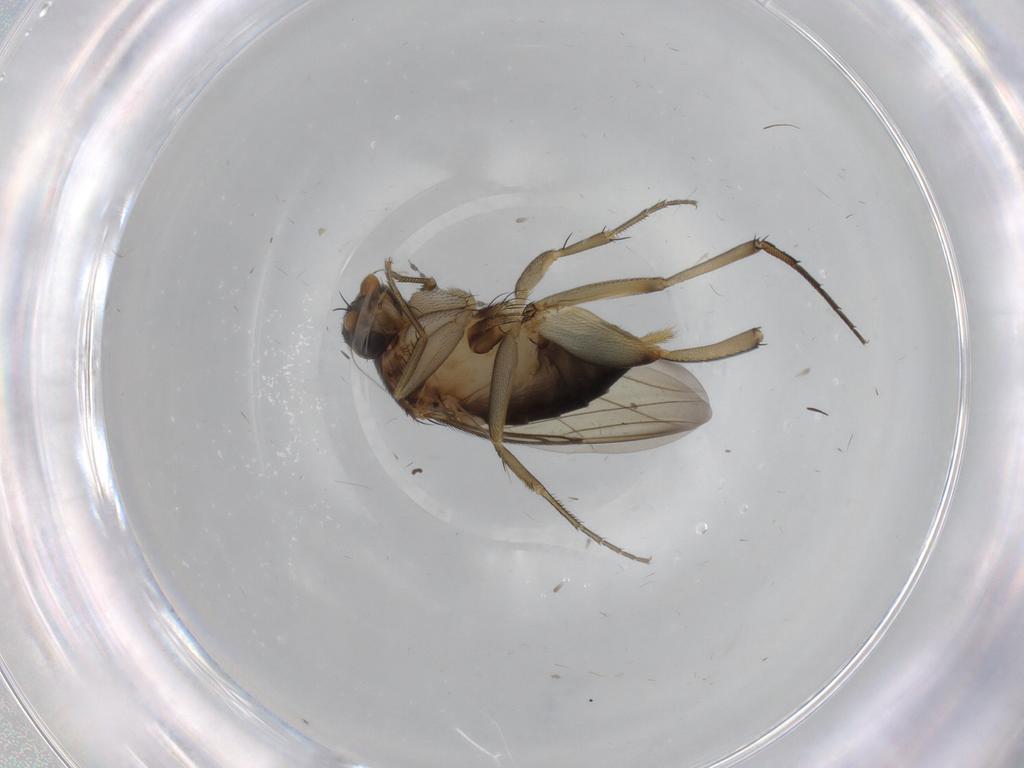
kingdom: Animalia
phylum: Arthropoda
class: Insecta
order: Diptera
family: Phoridae
